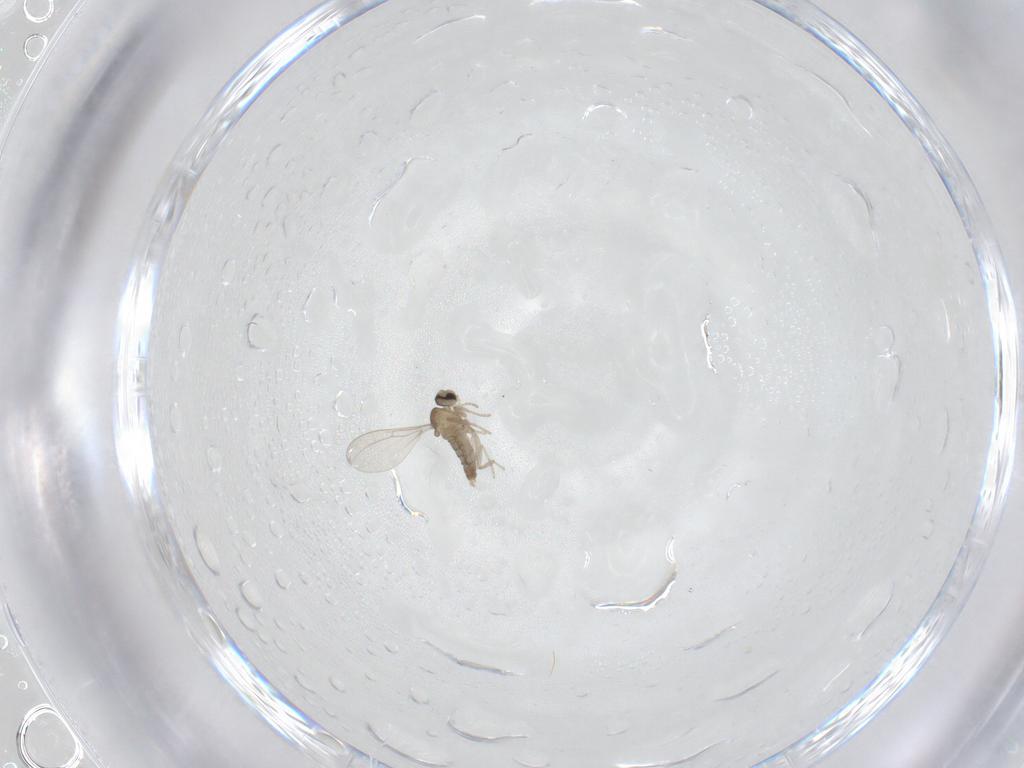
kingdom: Animalia
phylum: Arthropoda
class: Insecta
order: Diptera
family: Cecidomyiidae
